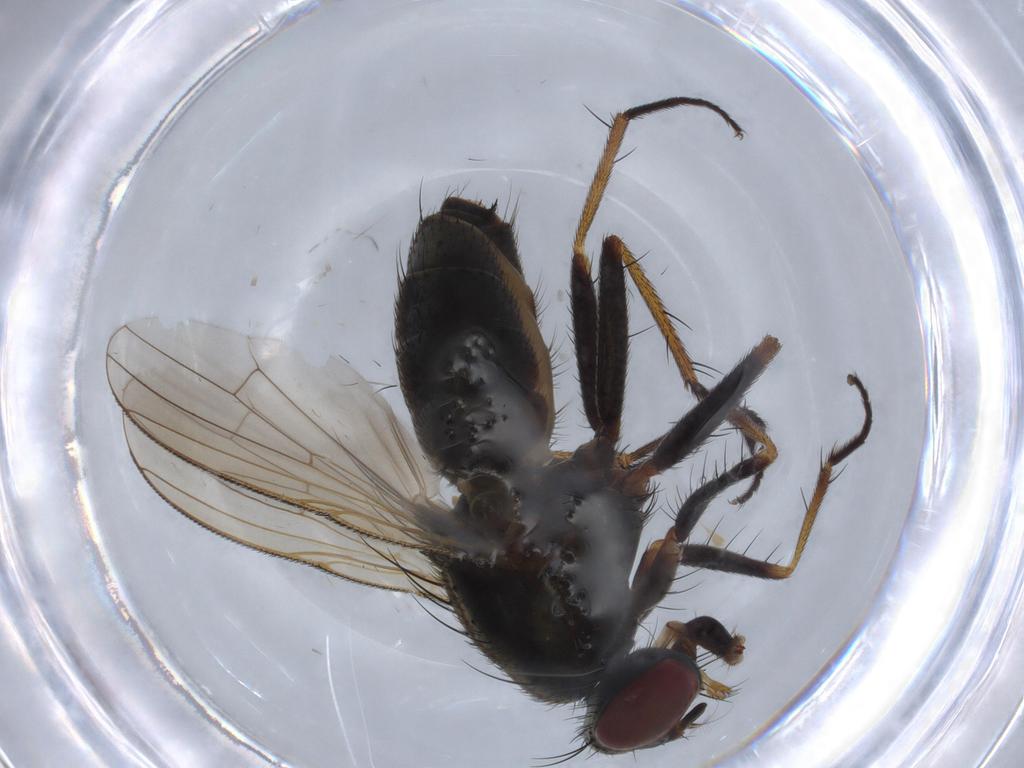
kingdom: Animalia
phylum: Arthropoda
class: Insecta
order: Diptera
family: Muscidae
